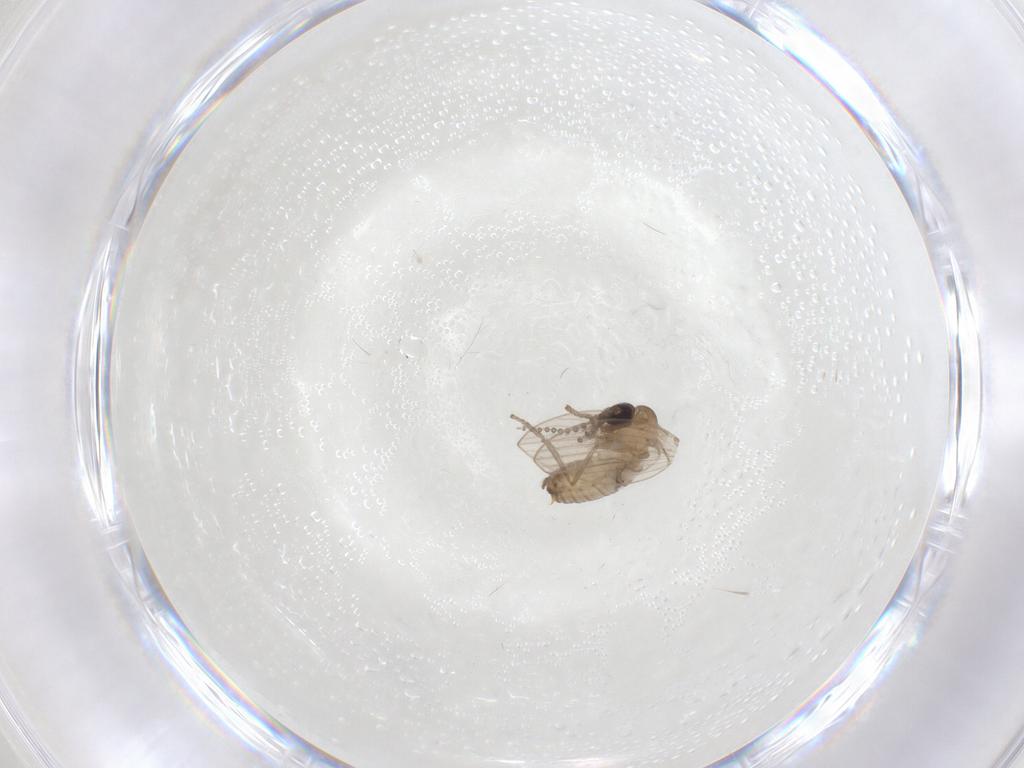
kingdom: Animalia
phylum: Arthropoda
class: Insecta
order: Diptera
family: Psychodidae
